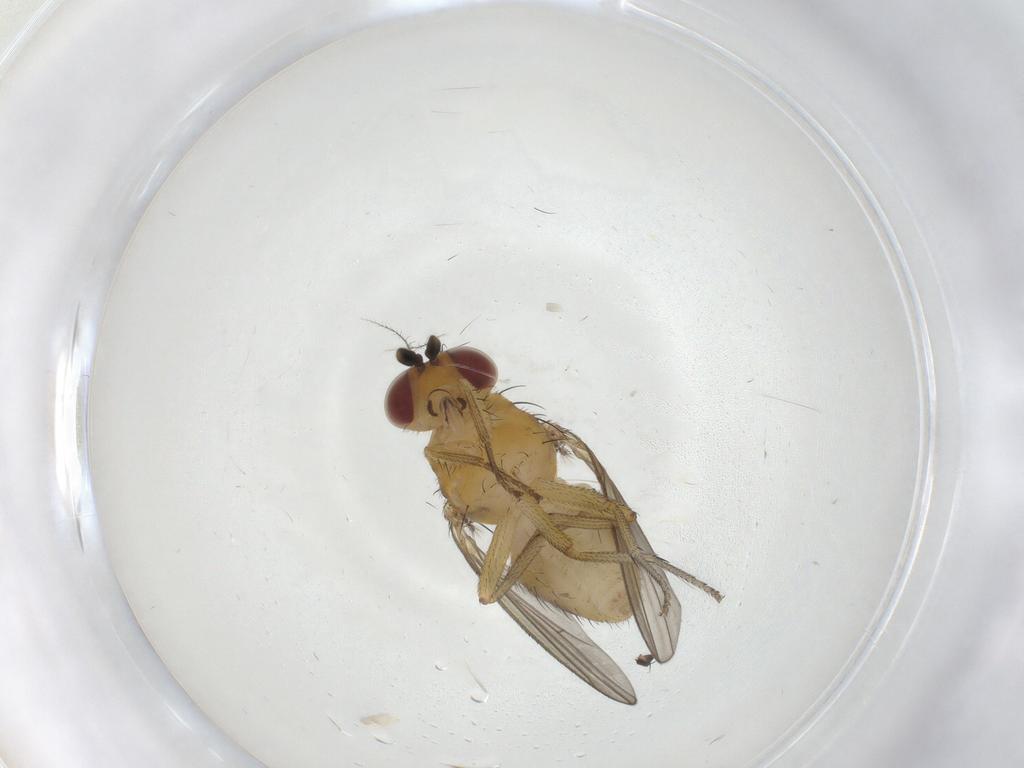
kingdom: Animalia
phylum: Arthropoda
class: Insecta
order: Diptera
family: Lauxaniidae
